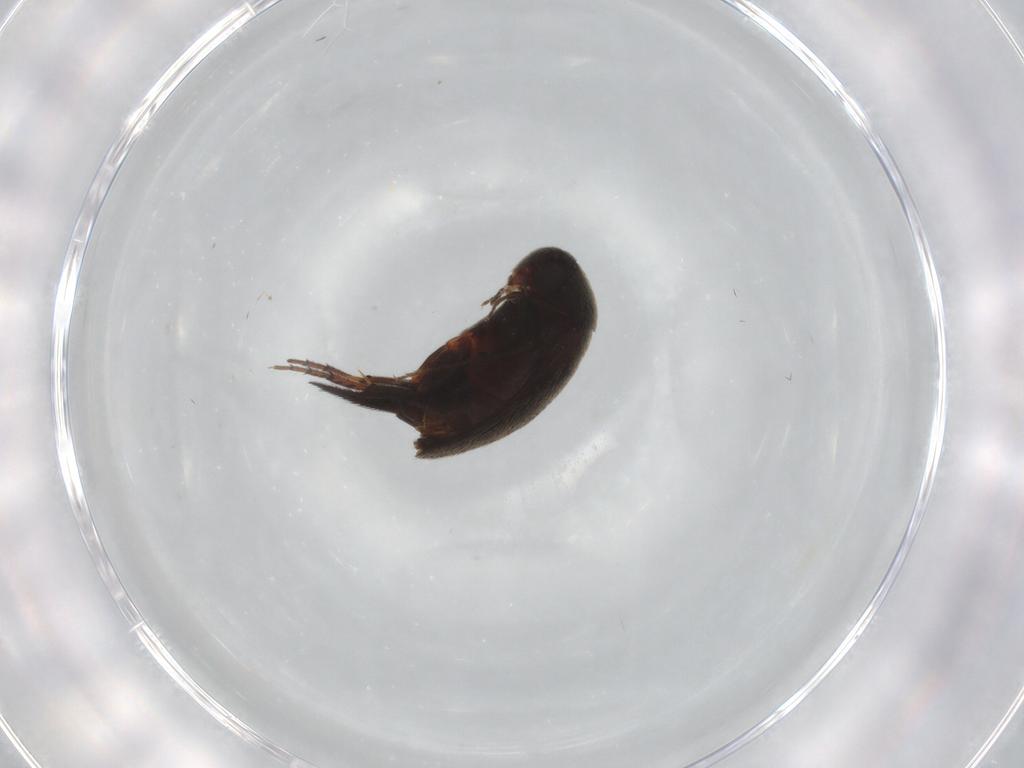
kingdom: Animalia
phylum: Arthropoda
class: Insecta
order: Coleoptera
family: Mordellidae
